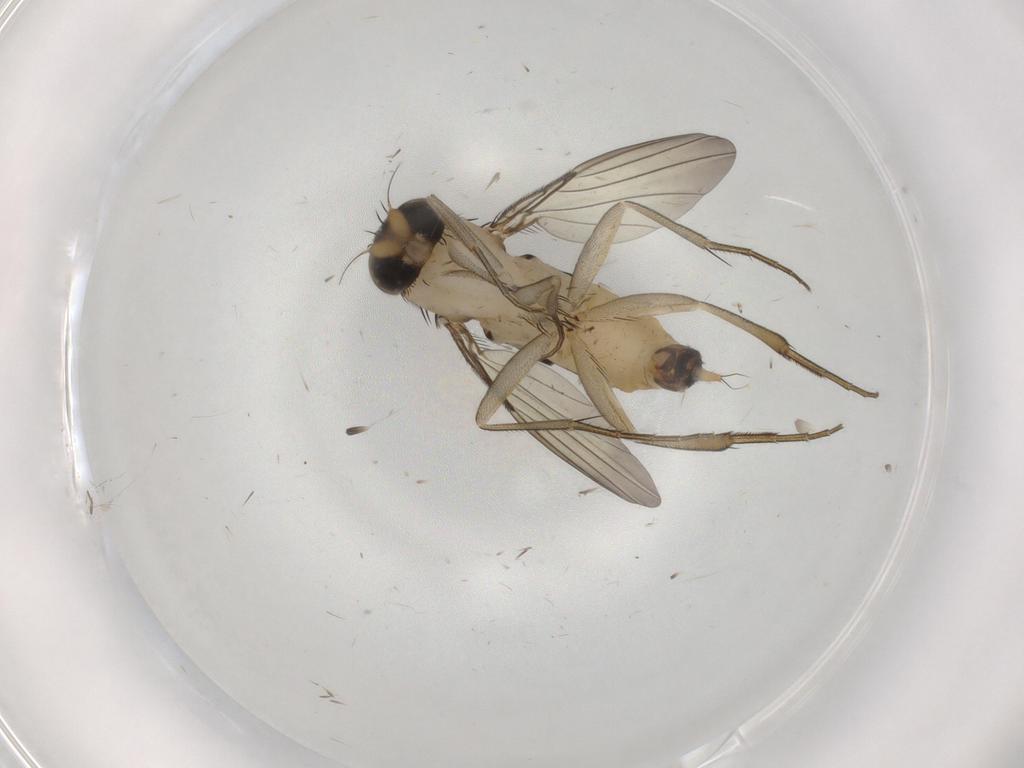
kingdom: Animalia
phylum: Arthropoda
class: Insecta
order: Diptera
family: Phoridae
